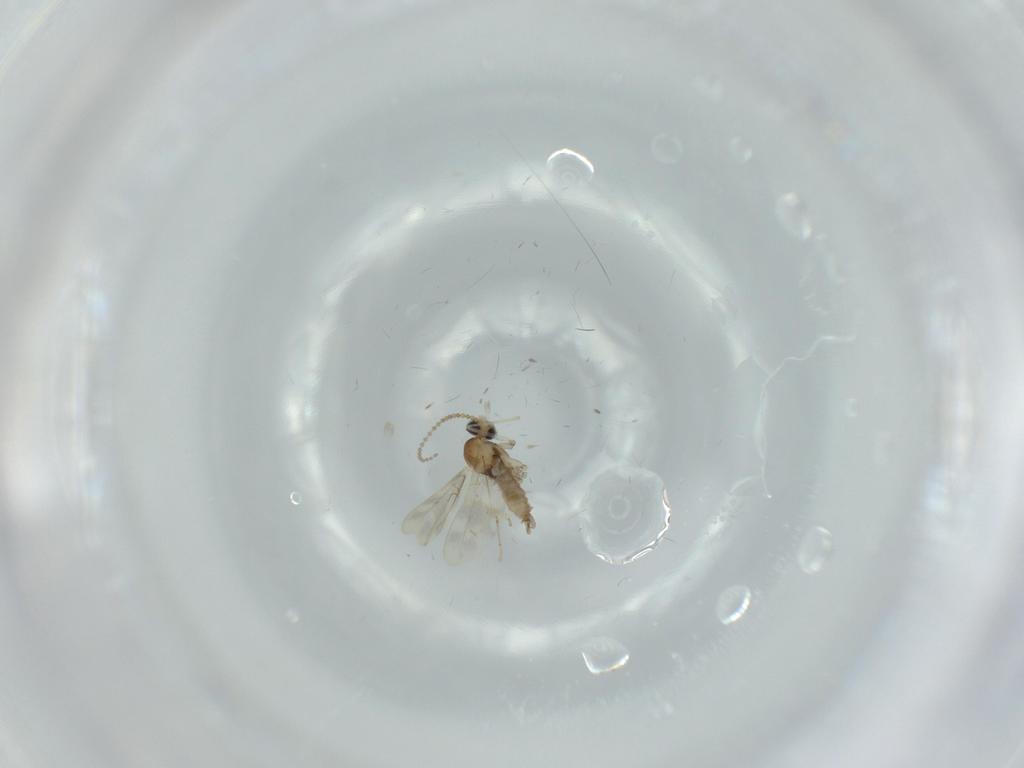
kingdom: Animalia
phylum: Arthropoda
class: Insecta
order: Diptera
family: Cecidomyiidae
